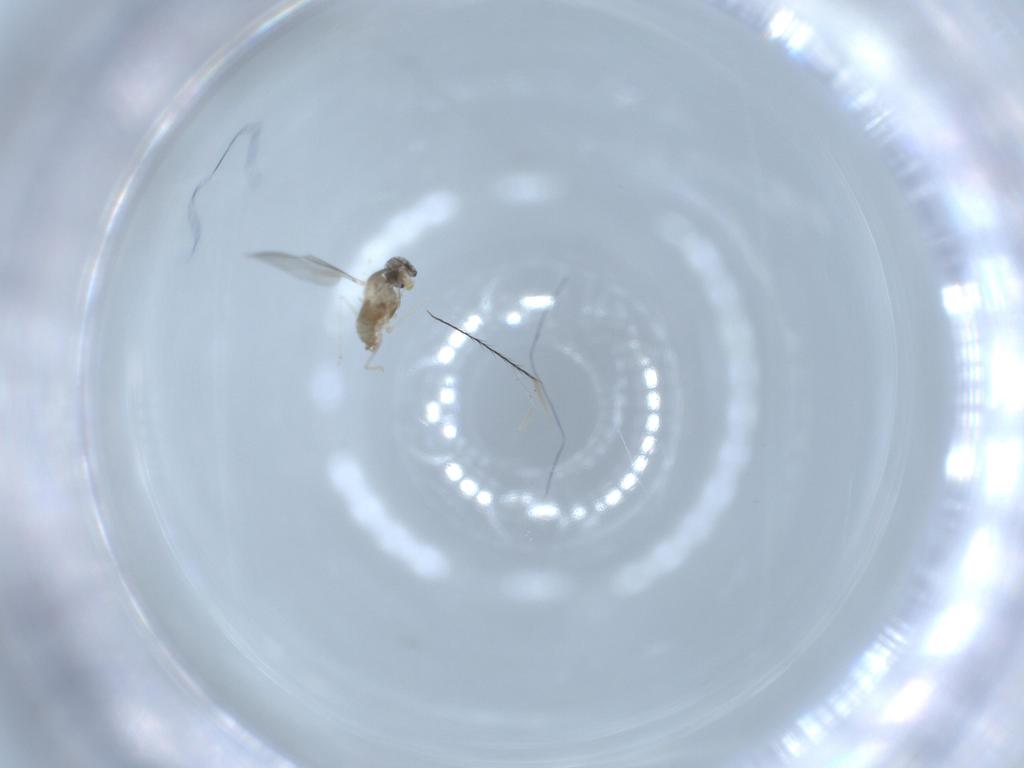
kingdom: Animalia
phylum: Arthropoda
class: Insecta
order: Diptera
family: Cecidomyiidae
